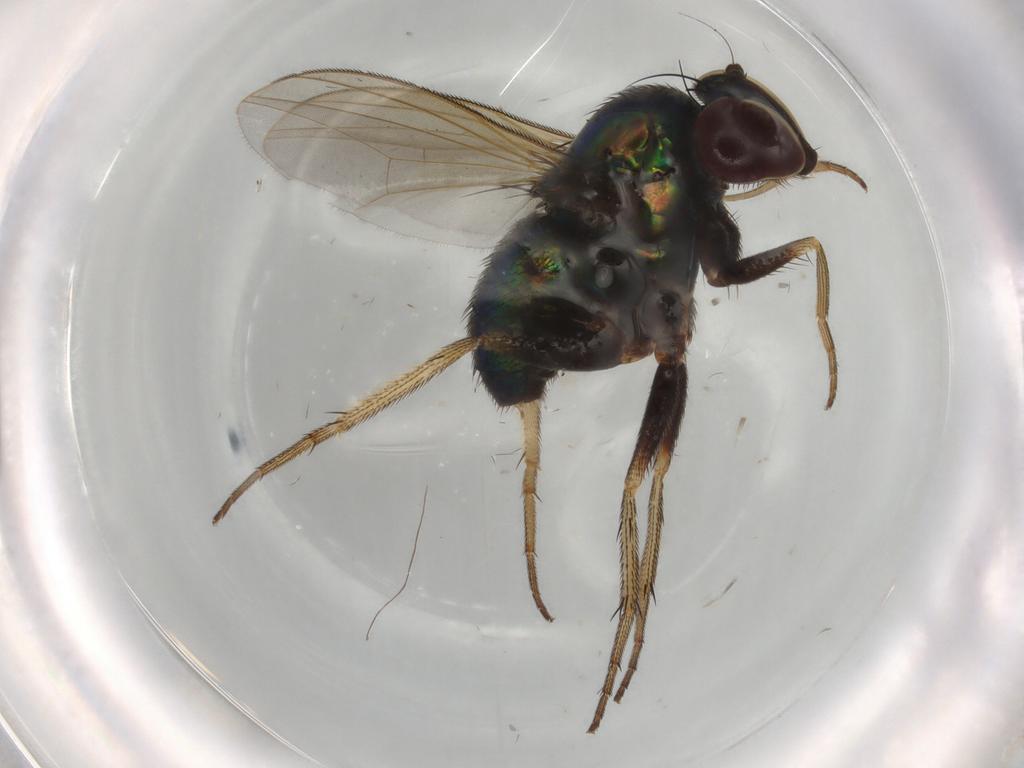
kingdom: Animalia
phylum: Arthropoda
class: Insecta
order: Diptera
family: Dolichopodidae
